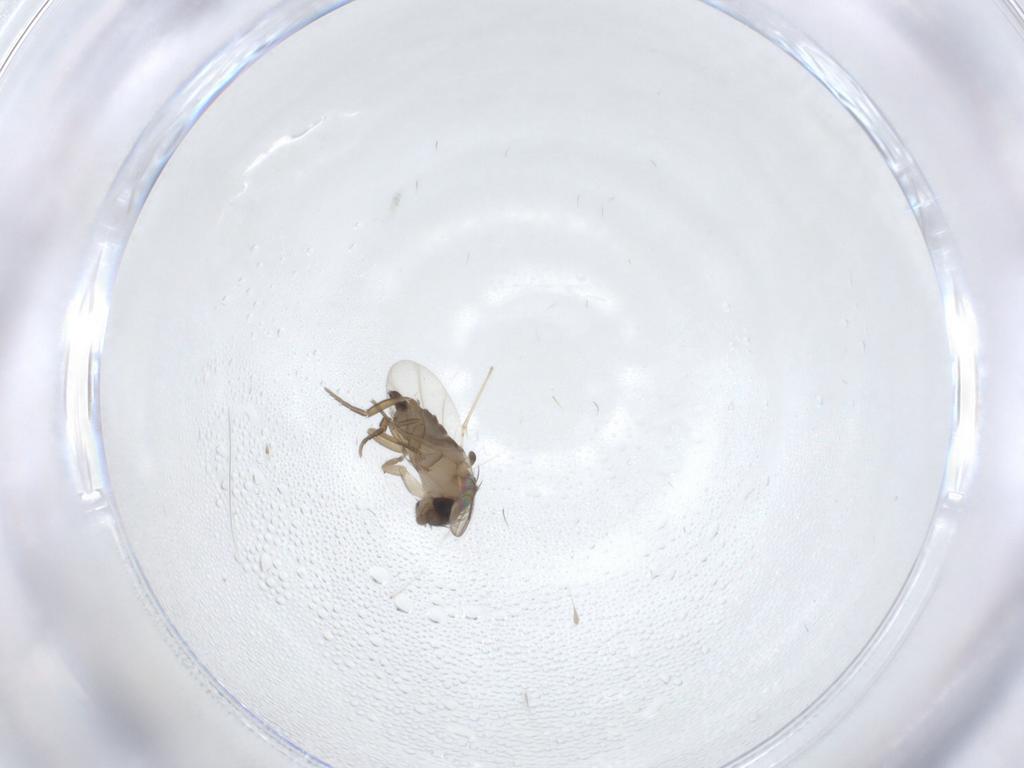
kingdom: Animalia
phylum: Arthropoda
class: Insecta
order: Diptera
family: Cecidomyiidae
